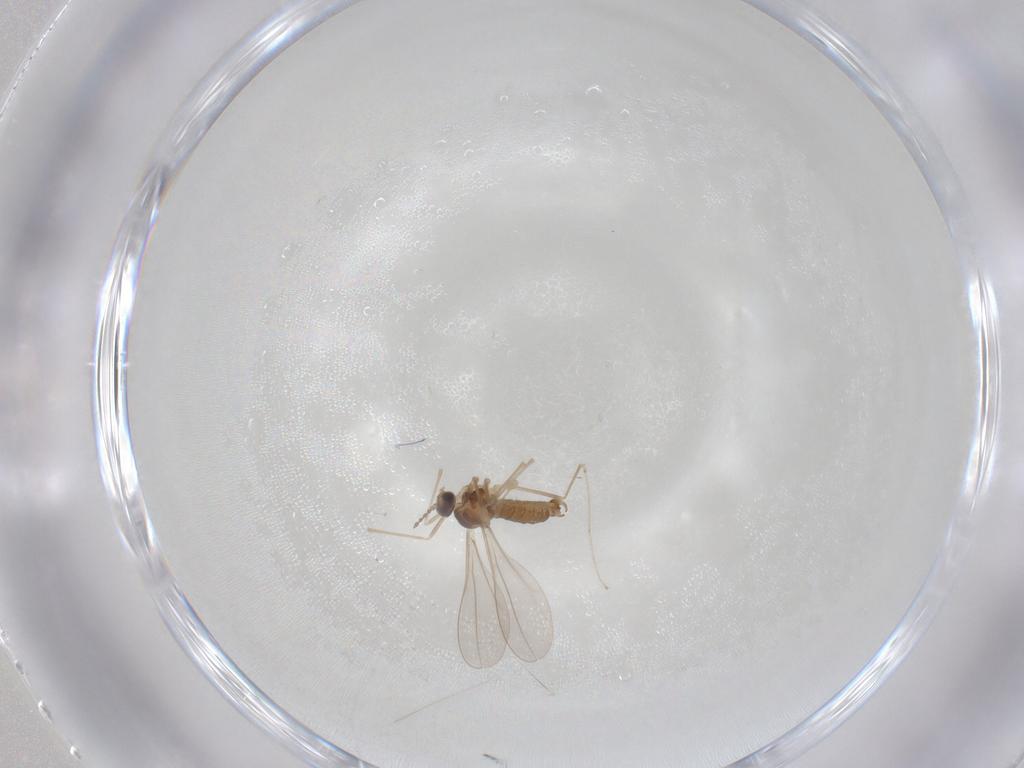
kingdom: Animalia
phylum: Arthropoda
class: Insecta
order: Diptera
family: Cecidomyiidae
